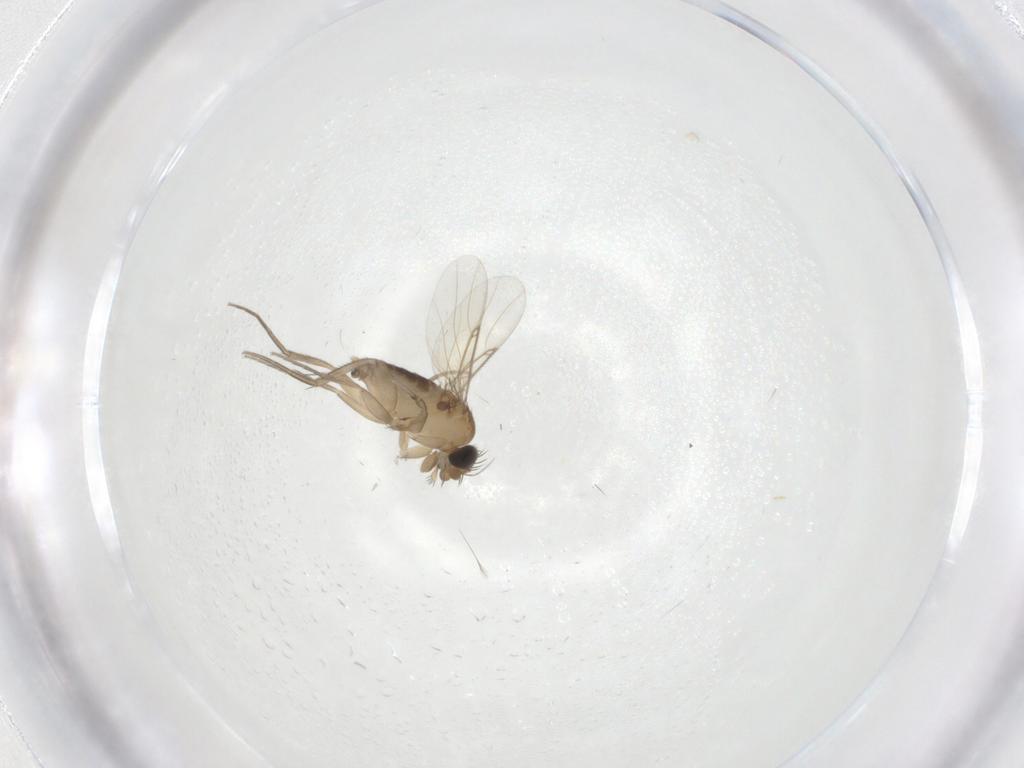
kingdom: Animalia
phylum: Arthropoda
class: Insecta
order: Diptera
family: Phoridae
